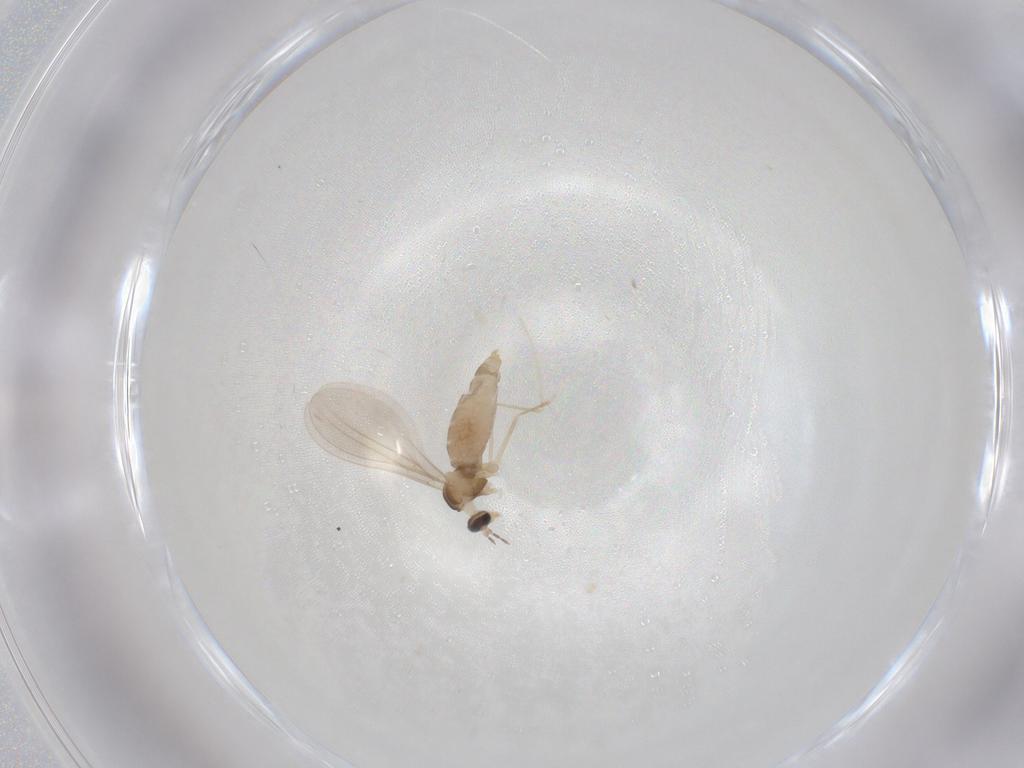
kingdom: Animalia
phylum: Arthropoda
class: Insecta
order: Diptera
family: Cecidomyiidae
